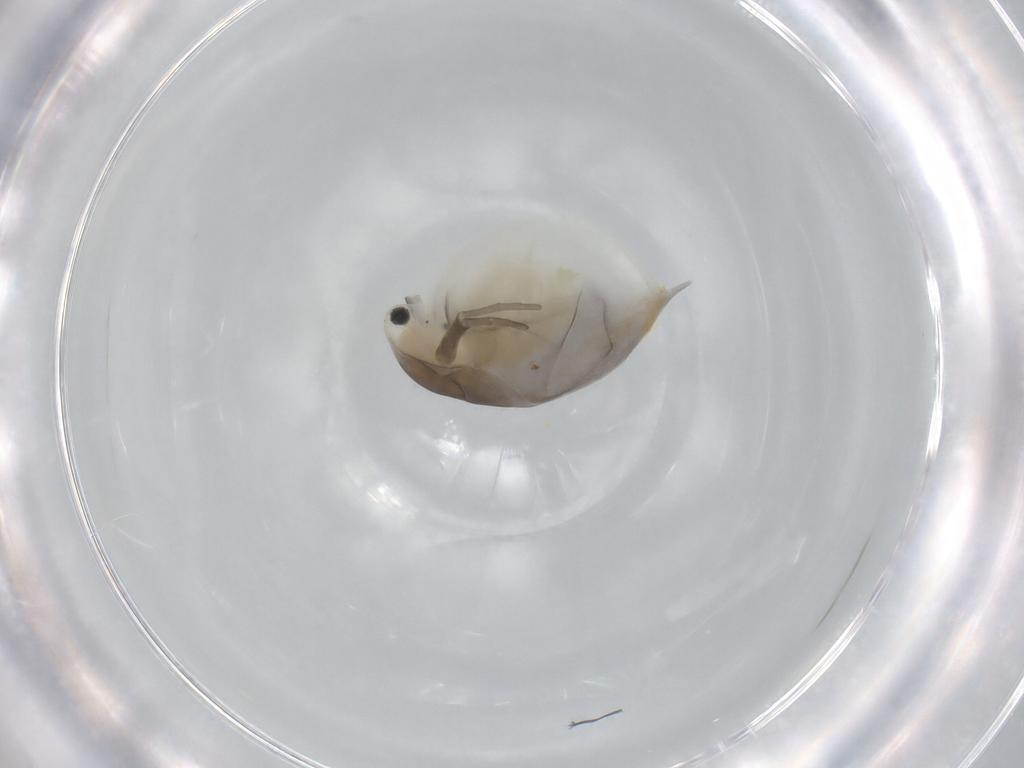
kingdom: Animalia
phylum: Arthropoda
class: Branchiopoda
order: Diplostraca
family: Daphniidae
